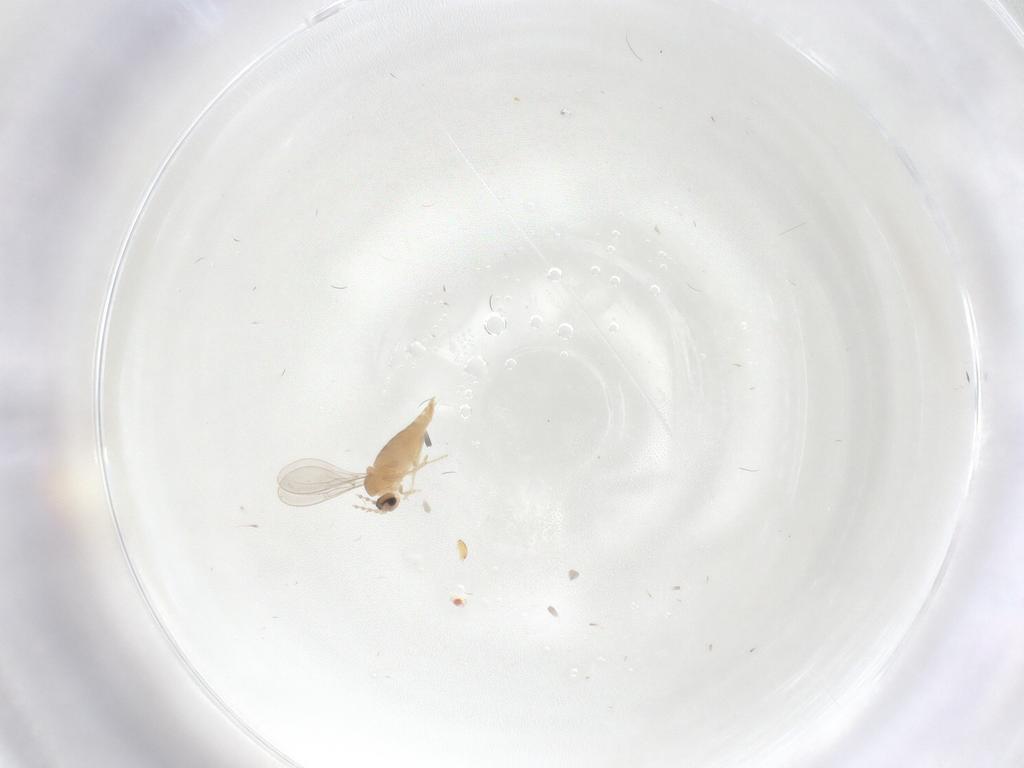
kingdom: Animalia
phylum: Arthropoda
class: Insecta
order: Diptera
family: Cecidomyiidae
